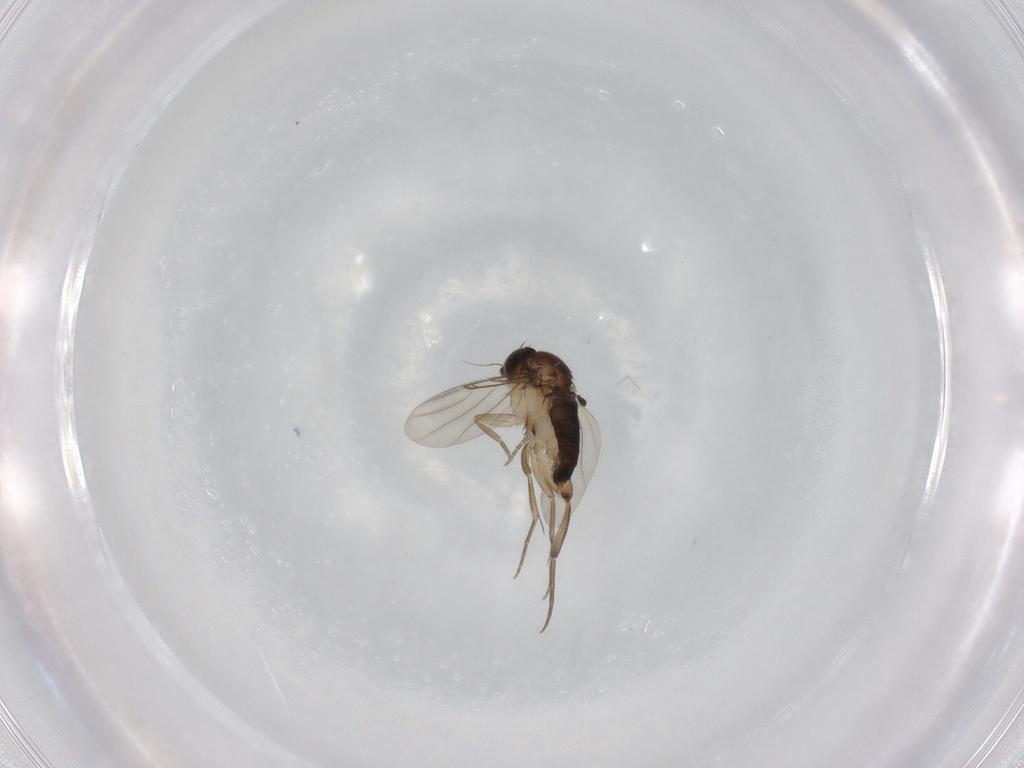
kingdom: Animalia
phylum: Arthropoda
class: Insecta
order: Diptera
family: Phoridae
